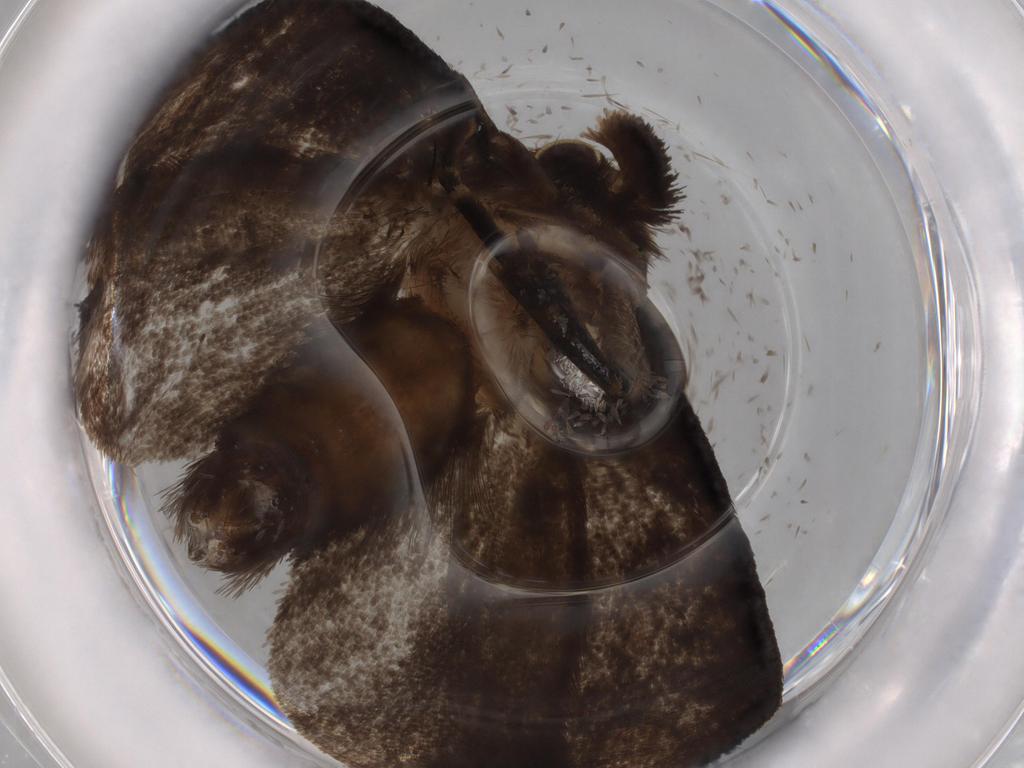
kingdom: Animalia
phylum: Arthropoda
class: Insecta
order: Lepidoptera
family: Tineidae
